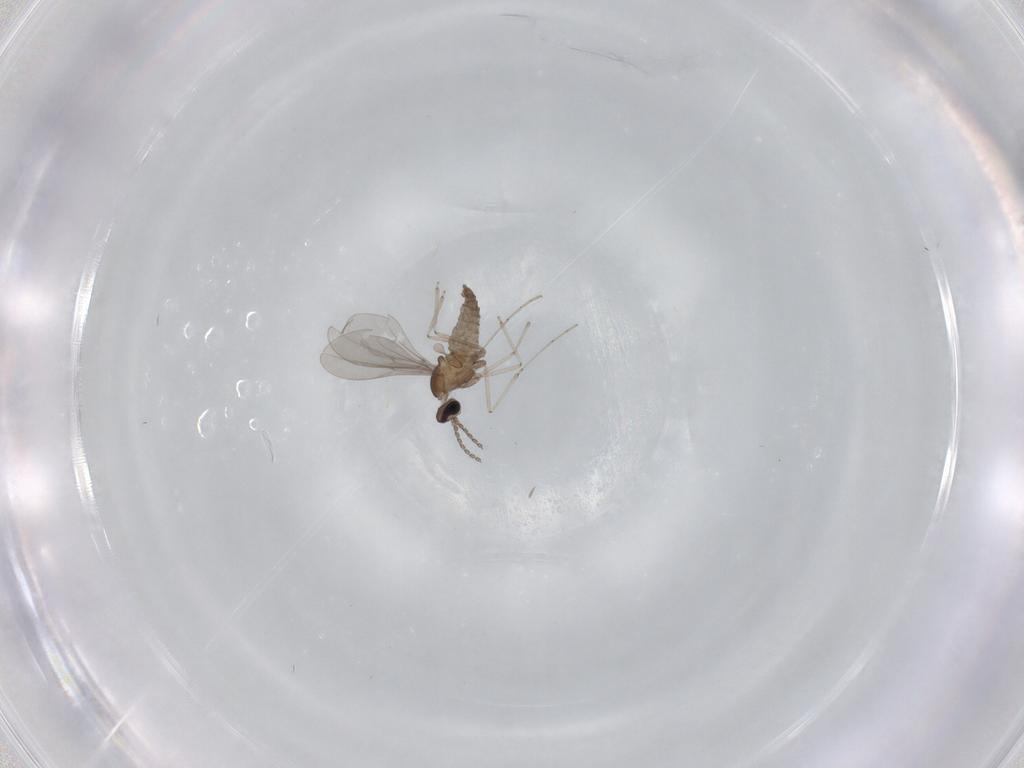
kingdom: Animalia
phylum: Arthropoda
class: Insecta
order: Diptera
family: Cecidomyiidae
